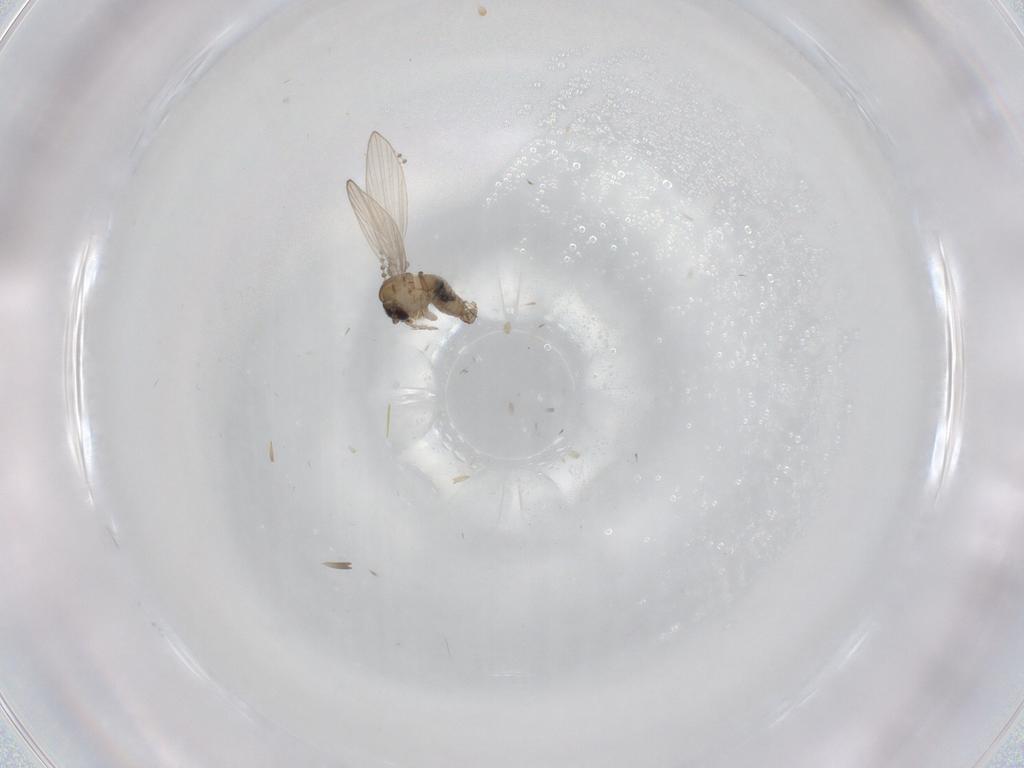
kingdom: Animalia
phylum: Arthropoda
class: Insecta
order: Diptera
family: Psychodidae
